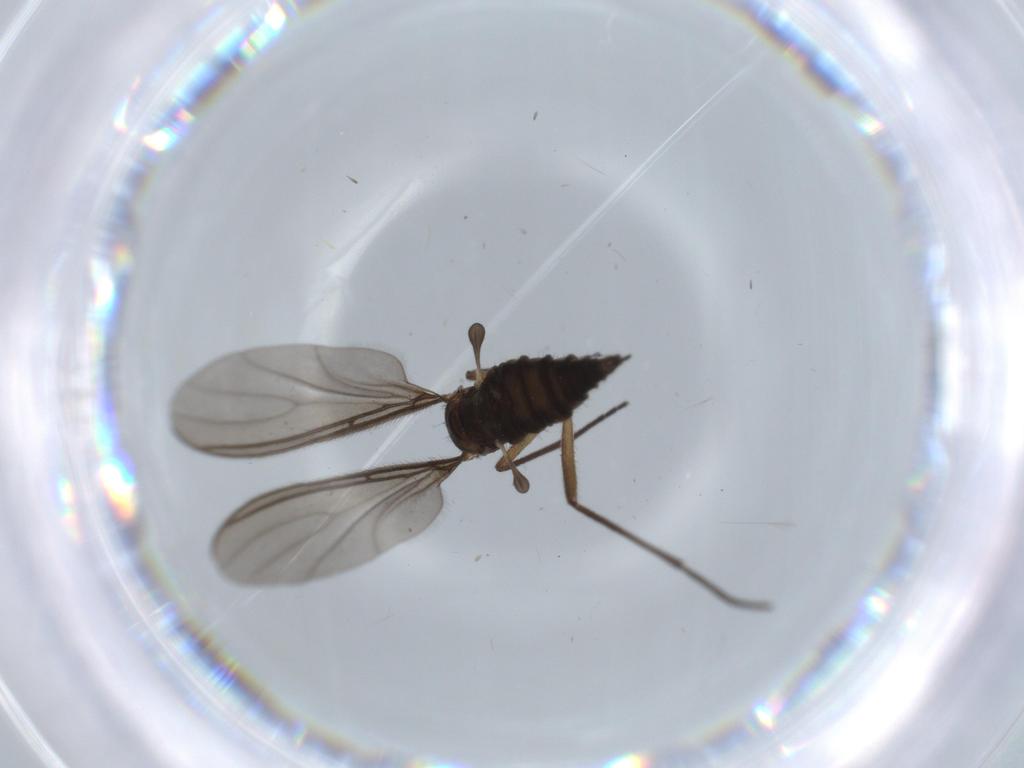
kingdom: Animalia
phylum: Arthropoda
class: Insecta
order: Diptera
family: Sciaridae
